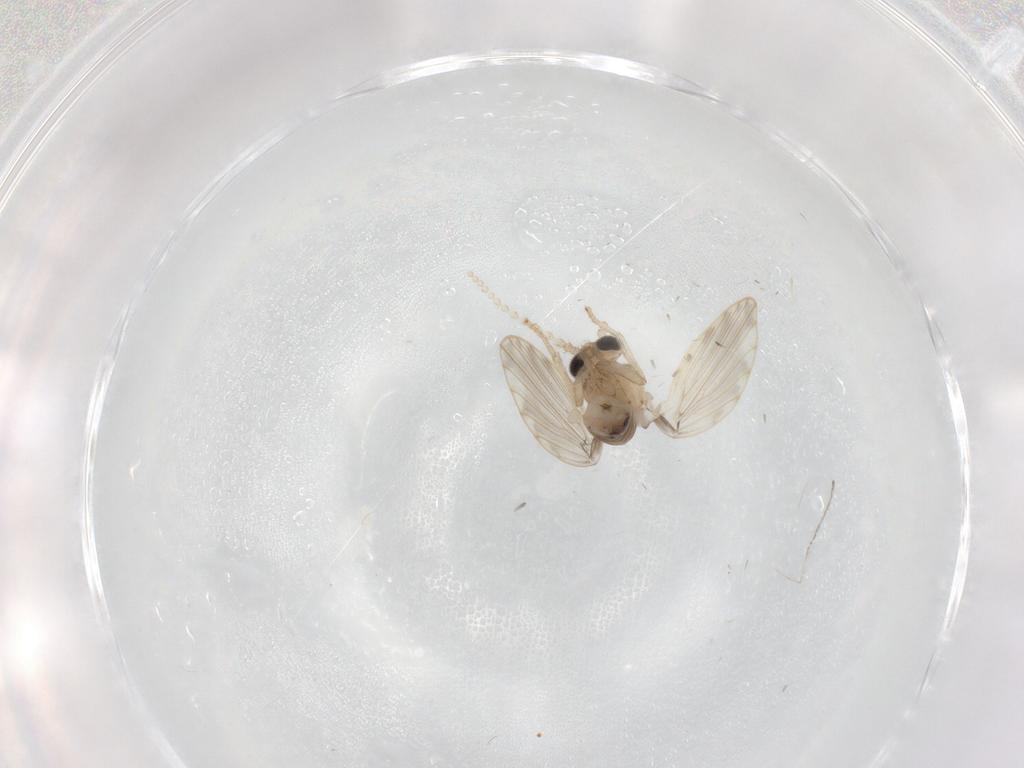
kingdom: Animalia
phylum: Arthropoda
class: Insecta
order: Diptera
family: Psychodidae
